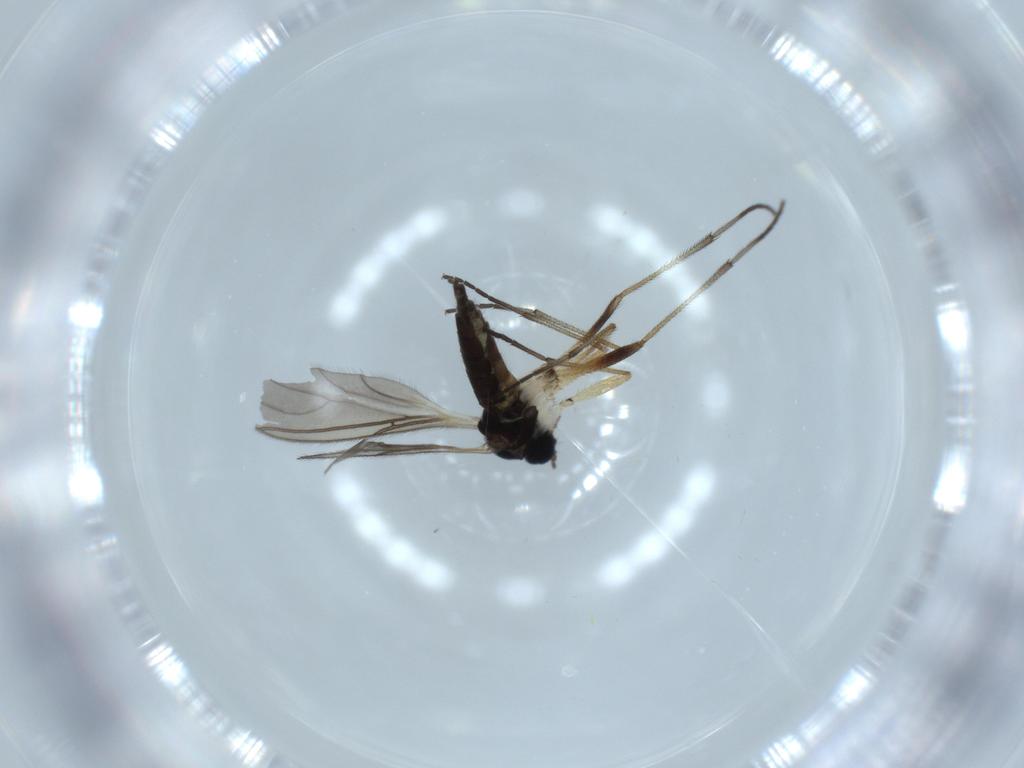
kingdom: Animalia
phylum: Arthropoda
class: Insecta
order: Diptera
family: Sciaridae
